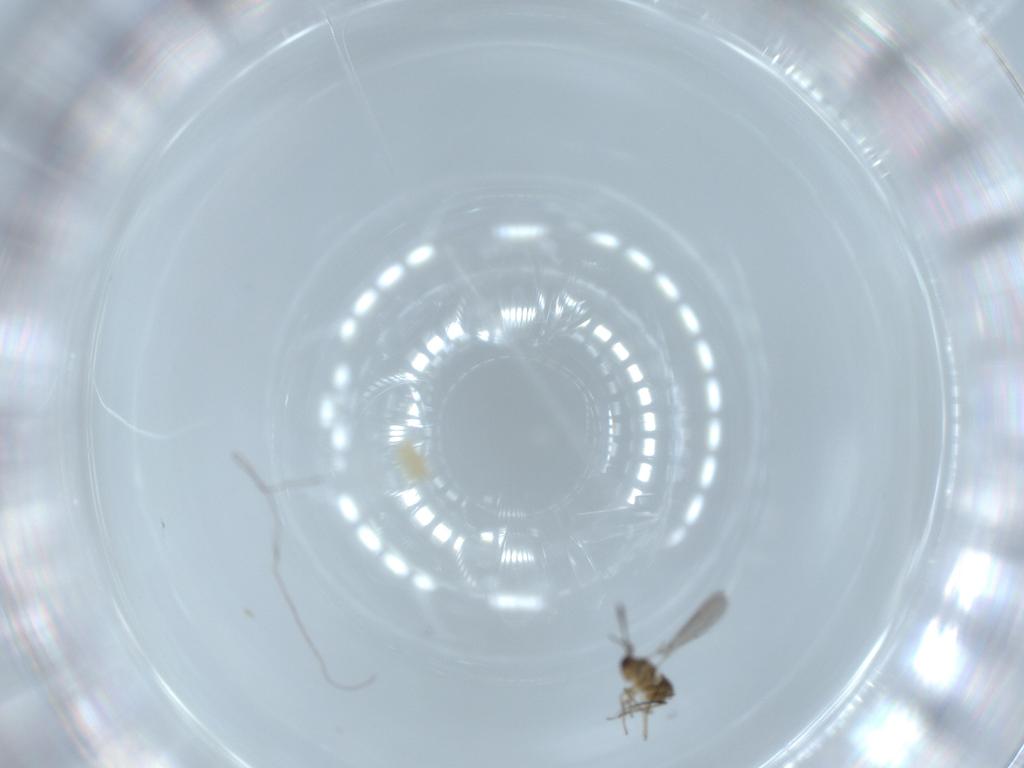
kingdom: Animalia
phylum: Arthropoda
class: Insecta
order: Hymenoptera
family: Mymaridae
